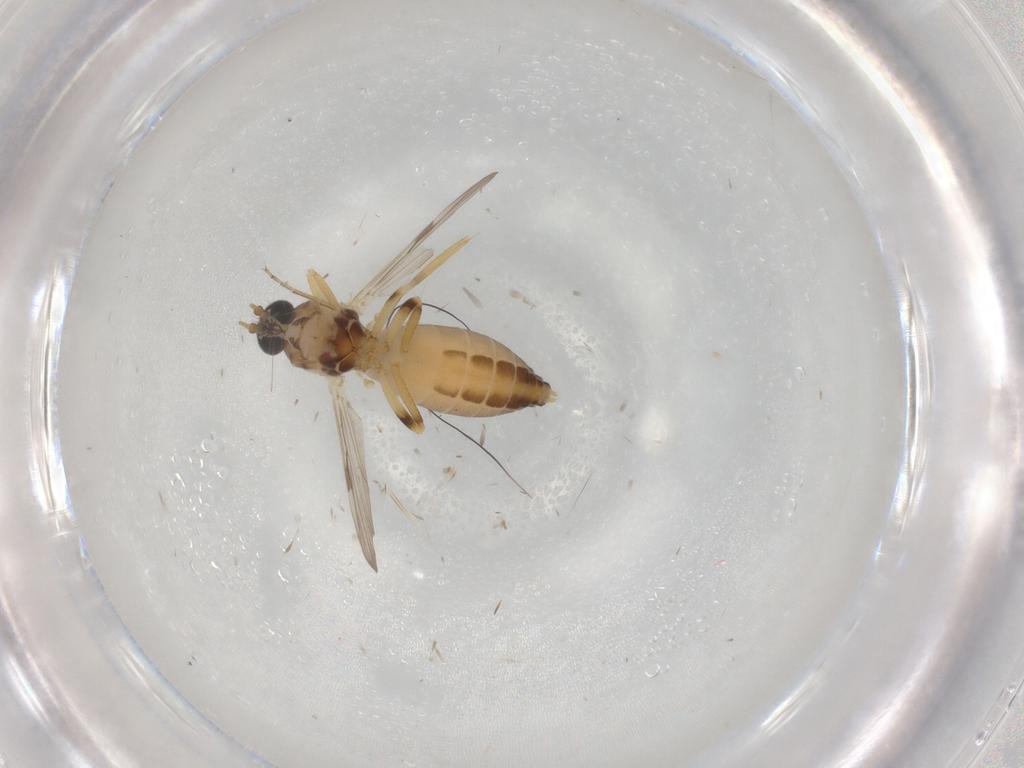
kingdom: Animalia
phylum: Arthropoda
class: Insecta
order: Diptera
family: Ceratopogonidae
